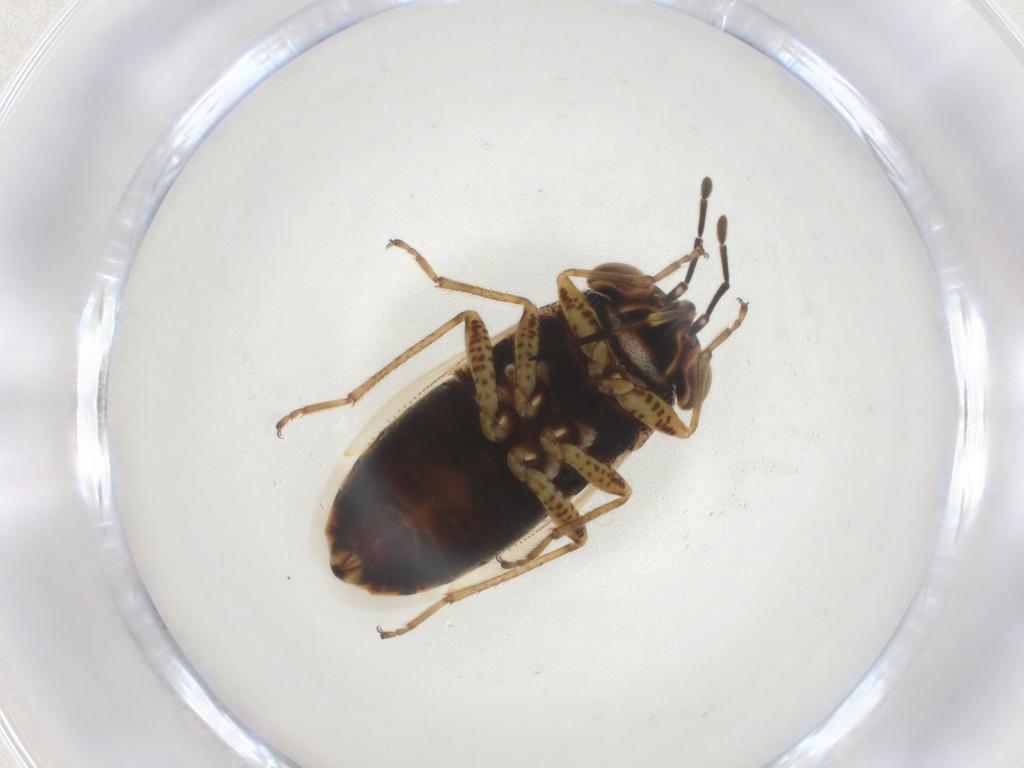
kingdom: Animalia
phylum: Arthropoda
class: Insecta
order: Hemiptera
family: Geocoridae
